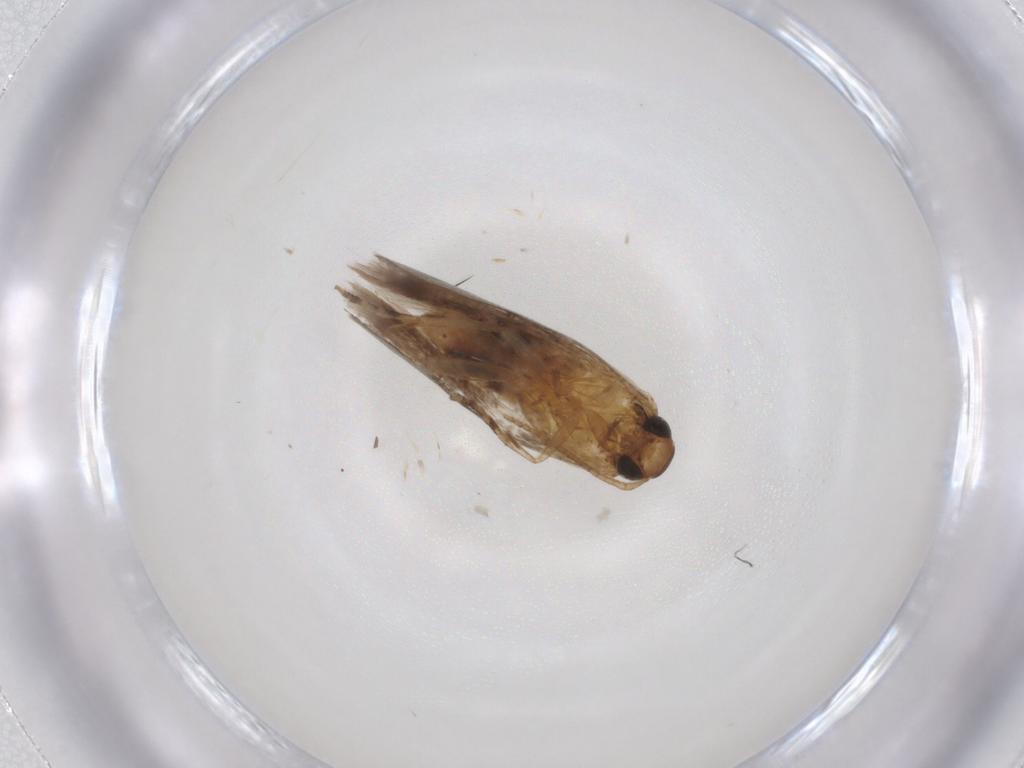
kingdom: Animalia
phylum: Arthropoda
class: Insecta
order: Lepidoptera
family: Gelechiidae
